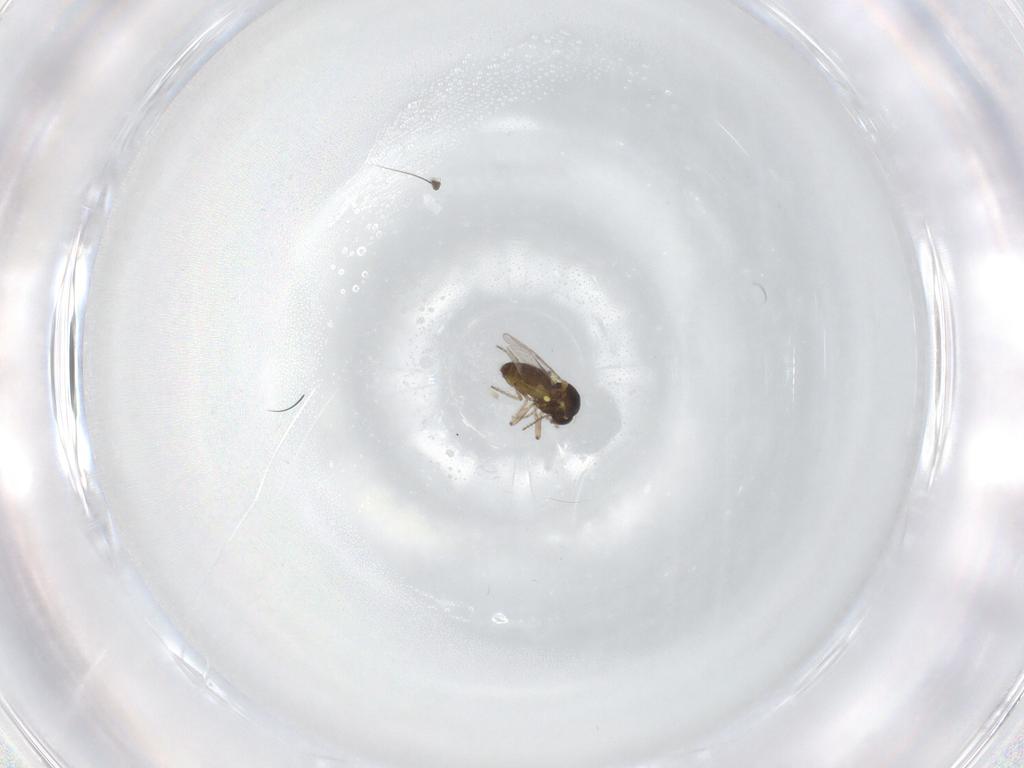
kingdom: Animalia
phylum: Arthropoda
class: Insecta
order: Diptera
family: Ceratopogonidae
